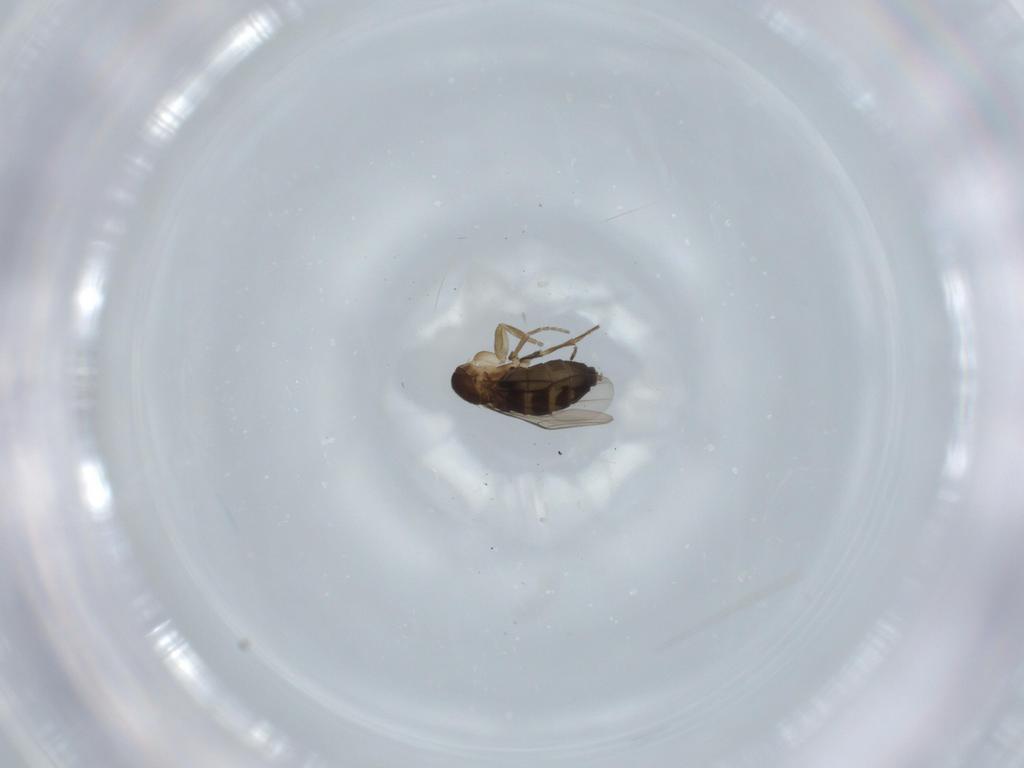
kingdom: Animalia
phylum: Arthropoda
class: Insecta
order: Diptera
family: Phoridae
